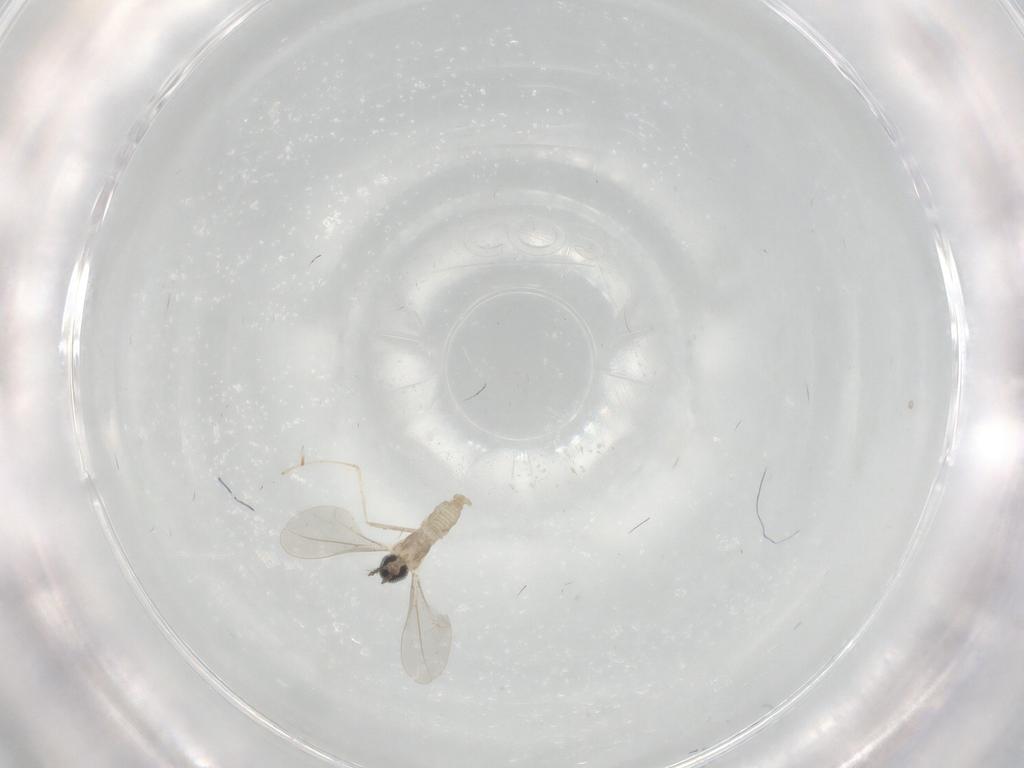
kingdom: Animalia
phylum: Arthropoda
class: Insecta
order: Diptera
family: Cecidomyiidae
